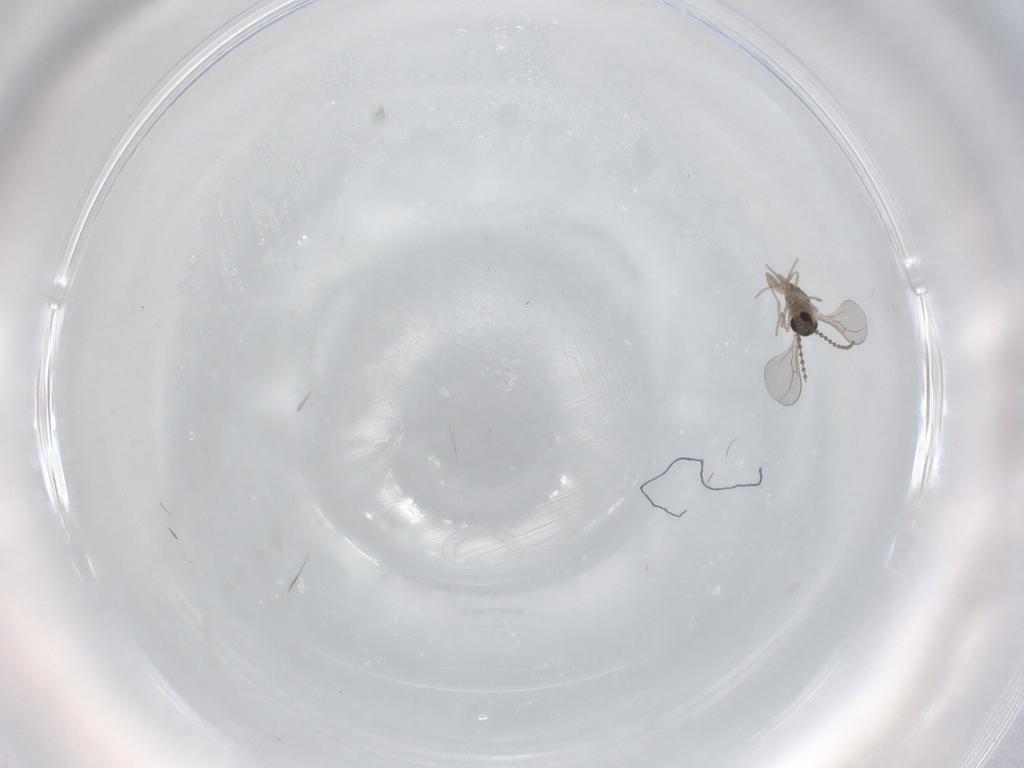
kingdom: Animalia
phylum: Arthropoda
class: Insecta
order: Diptera
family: Cecidomyiidae
